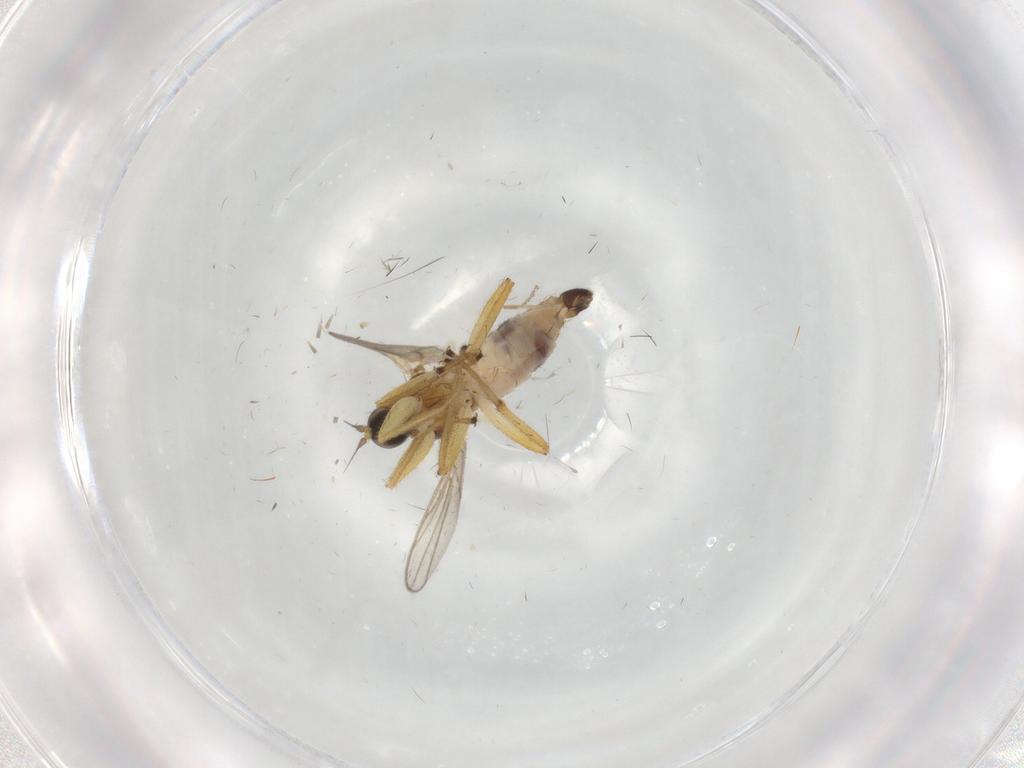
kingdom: Animalia
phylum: Arthropoda
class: Insecta
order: Diptera
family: Hybotidae
